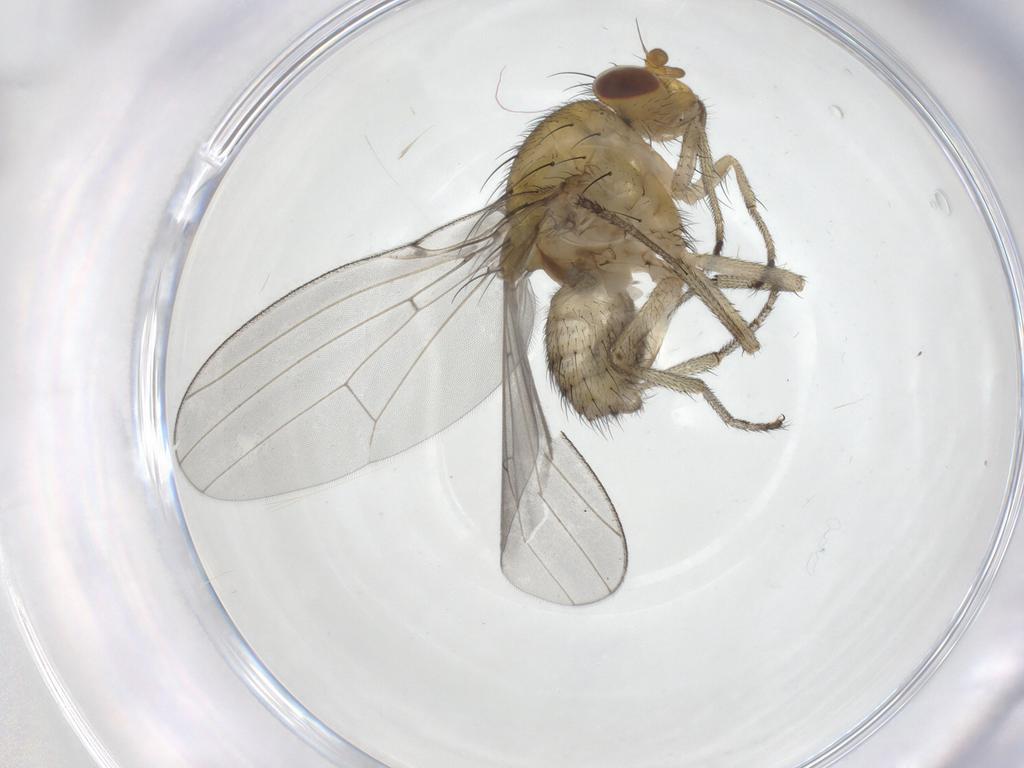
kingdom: Animalia
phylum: Arthropoda
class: Insecta
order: Diptera
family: Chironomidae
